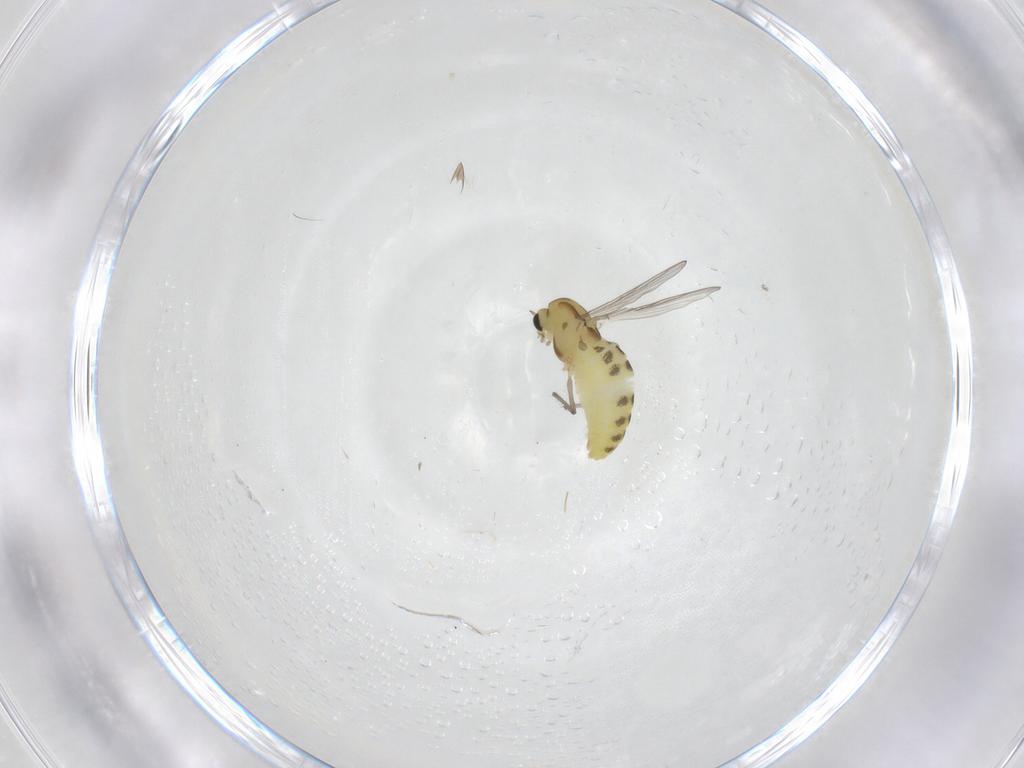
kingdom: Animalia
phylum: Arthropoda
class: Insecta
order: Diptera
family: Chironomidae
